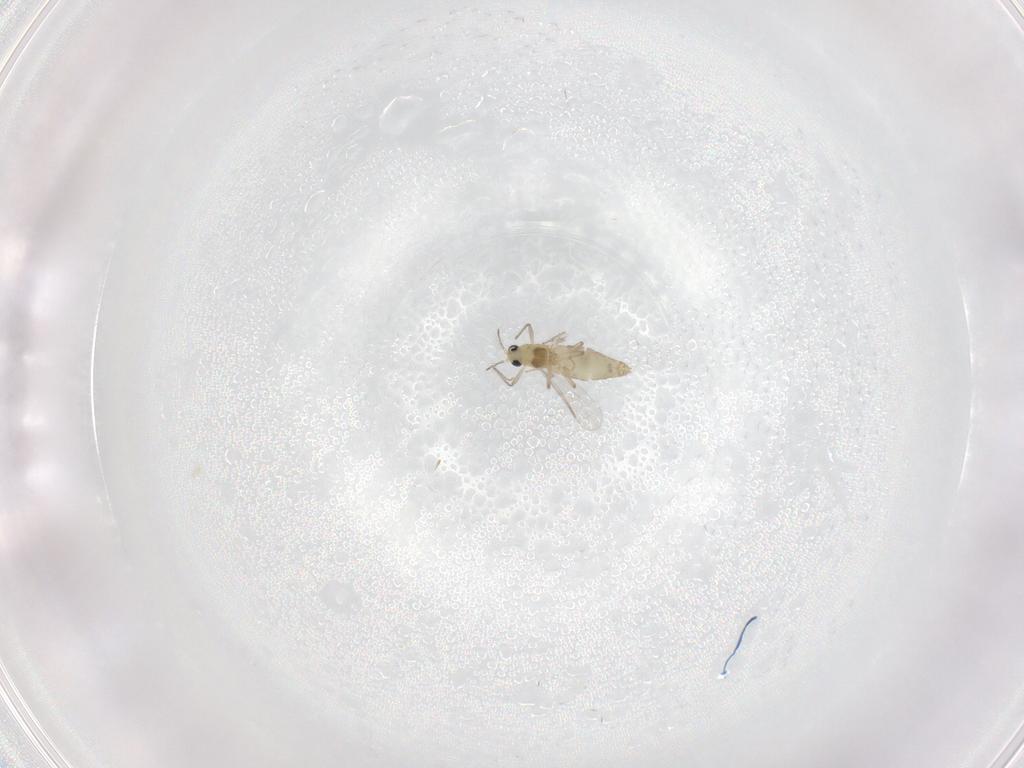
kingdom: Animalia
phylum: Arthropoda
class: Insecta
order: Diptera
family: Chironomidae
